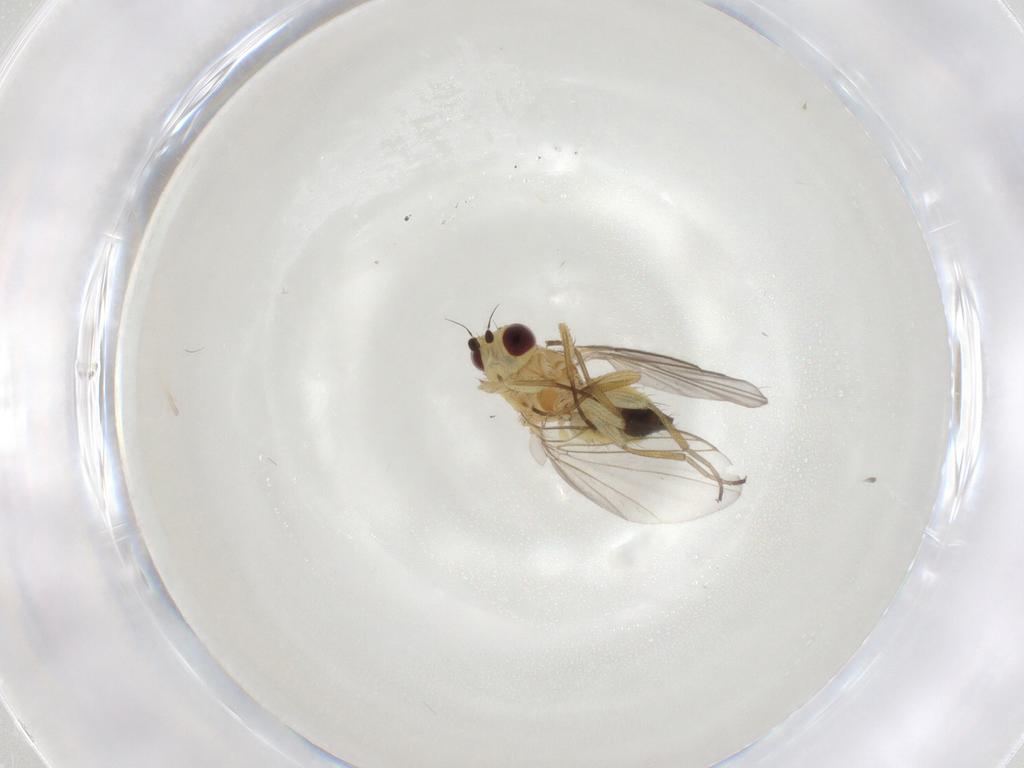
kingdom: Animalia
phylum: Arthropoda
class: Insecta
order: Diptera
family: Agromyzidae
